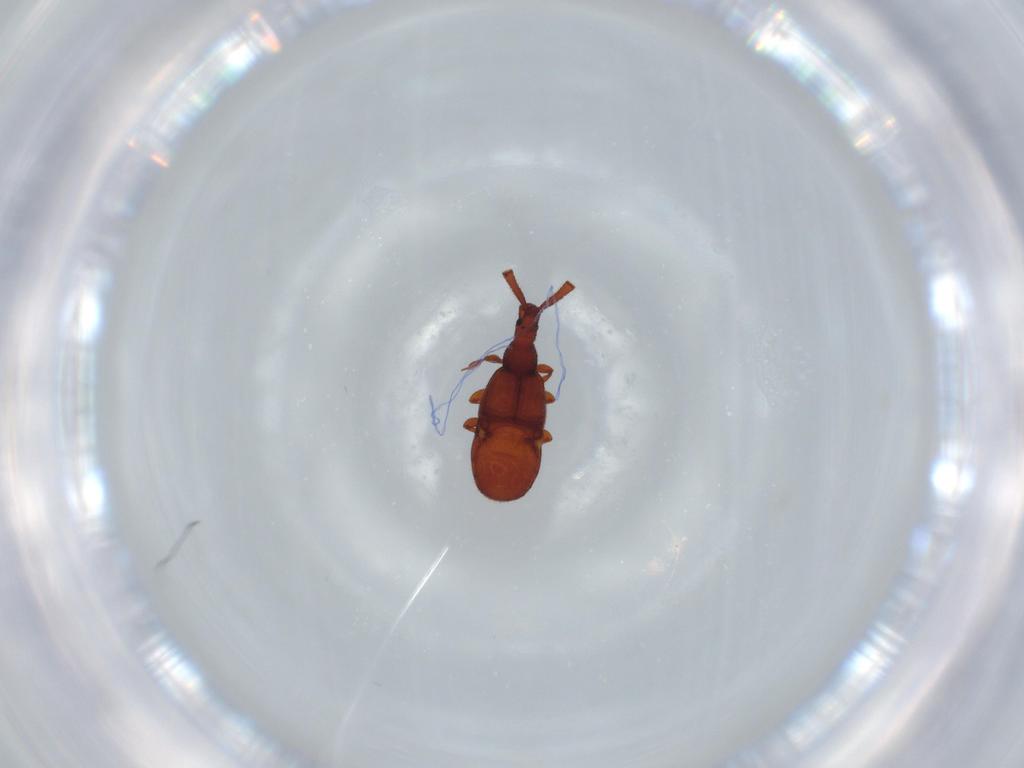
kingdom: Animalia
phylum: Arthropoda
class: Insecta
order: Coleoptera
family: Staphylinidae
